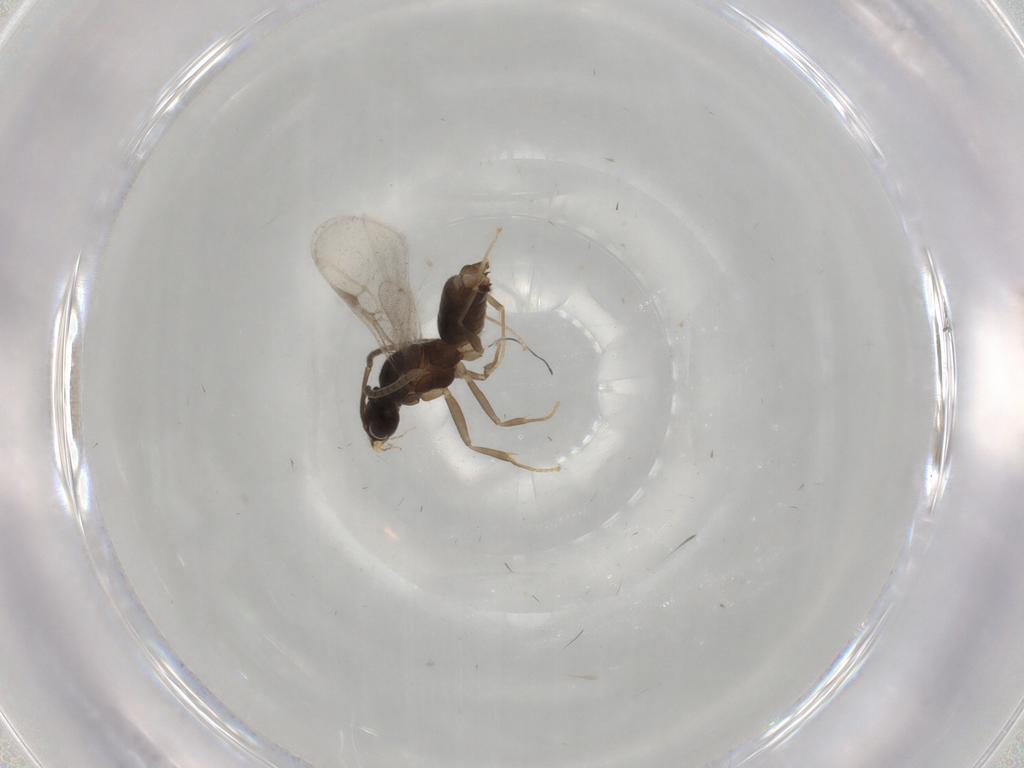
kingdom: Animalia
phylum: Arthropoda
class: Insecta
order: Hymenoptera
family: Formicidae
